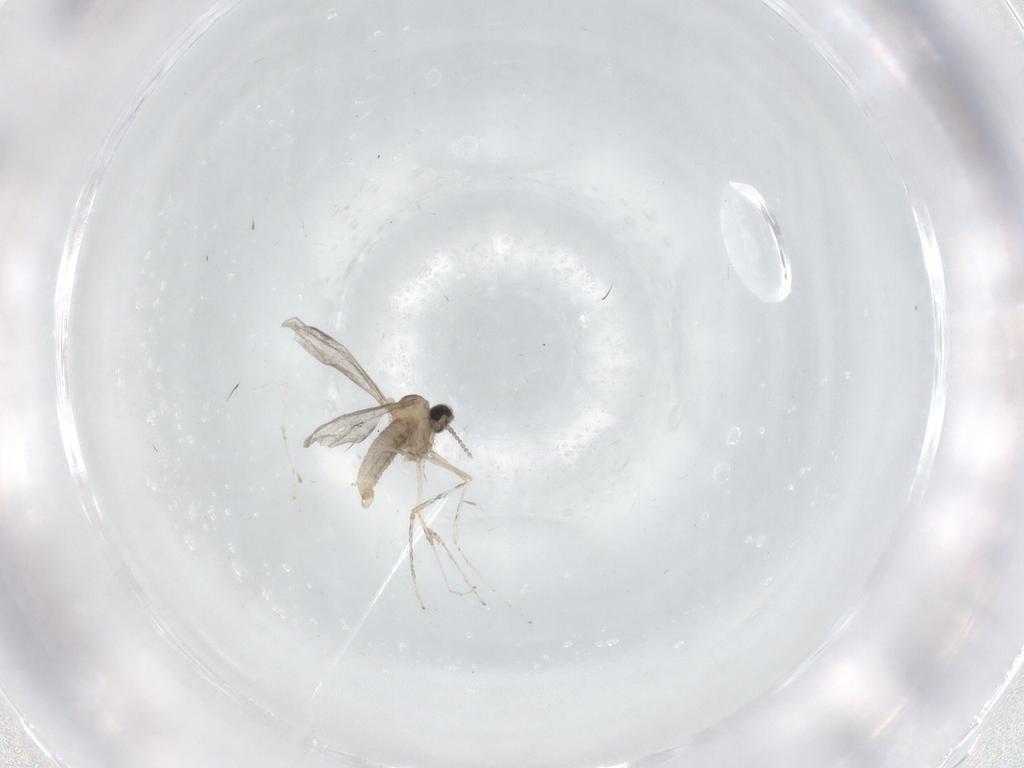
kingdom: Animalia
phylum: Arthropoda
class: Insecta
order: Diptera
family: Cecidomyiidae
